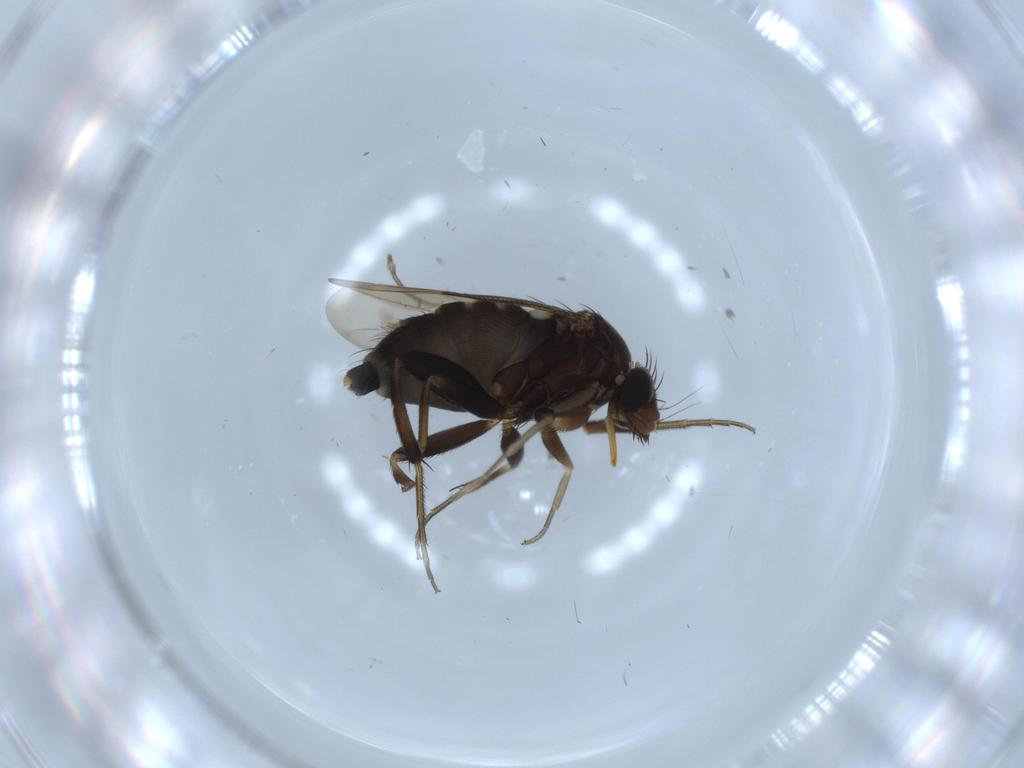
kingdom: Animalia
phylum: Arthropoda
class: Insecta
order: Diptera
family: Phoridae
